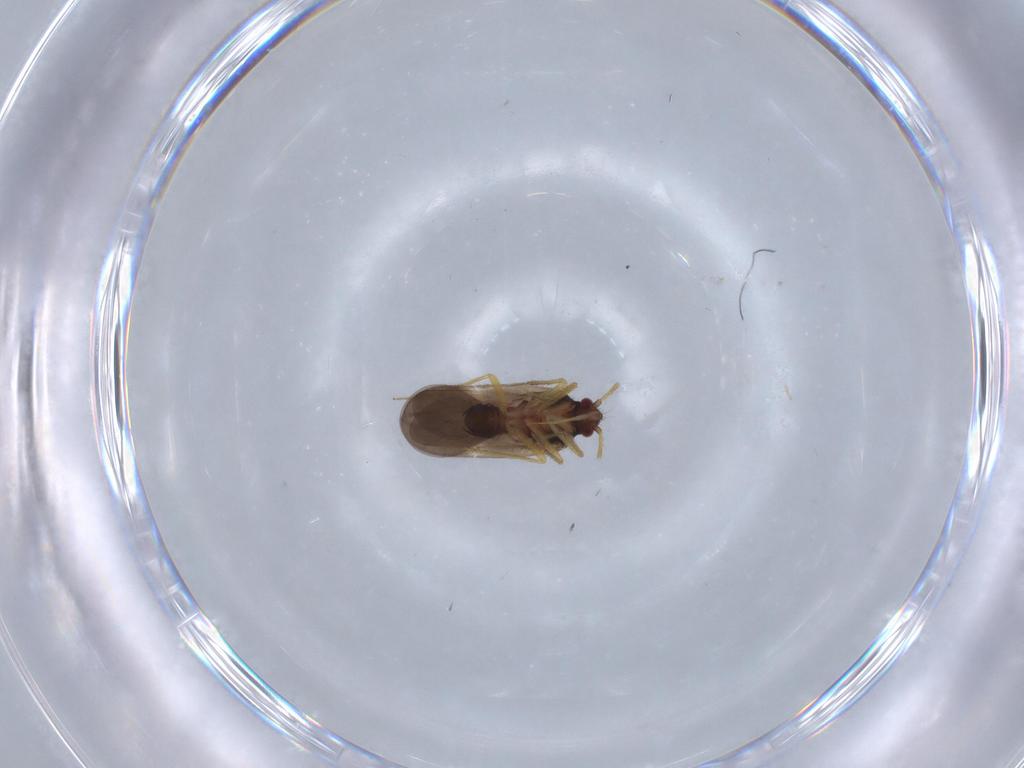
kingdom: Animalia
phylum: Arthropoda
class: Insecta
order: Hemiptera
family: Ceratocombidae
